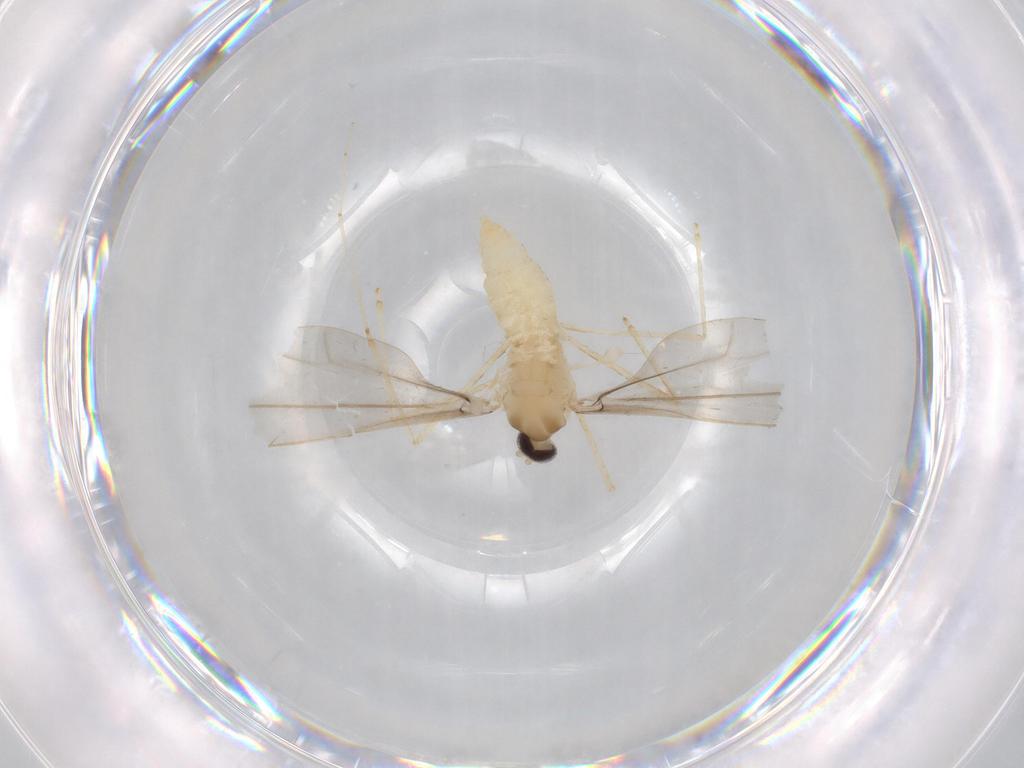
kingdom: Animalia
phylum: Arthropoda
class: Insecta
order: Diptera
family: Cecidomyiidae
